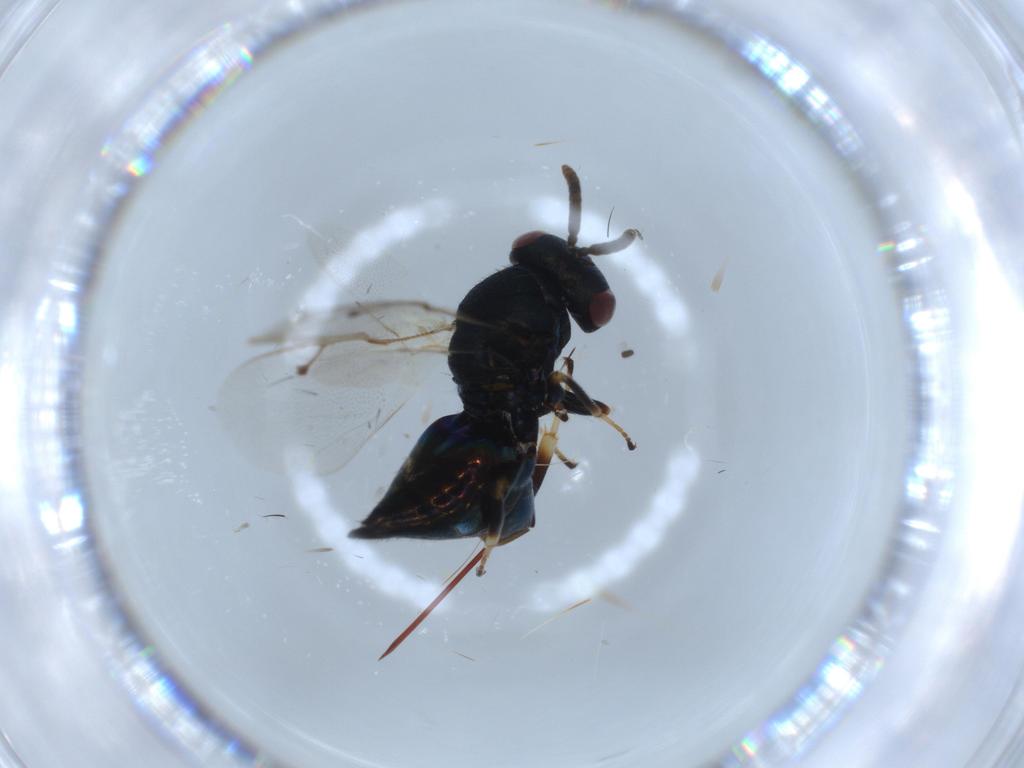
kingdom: Animalia
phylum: Arthropoda
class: Insecta
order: Hymenoptera
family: Pteromalidae
